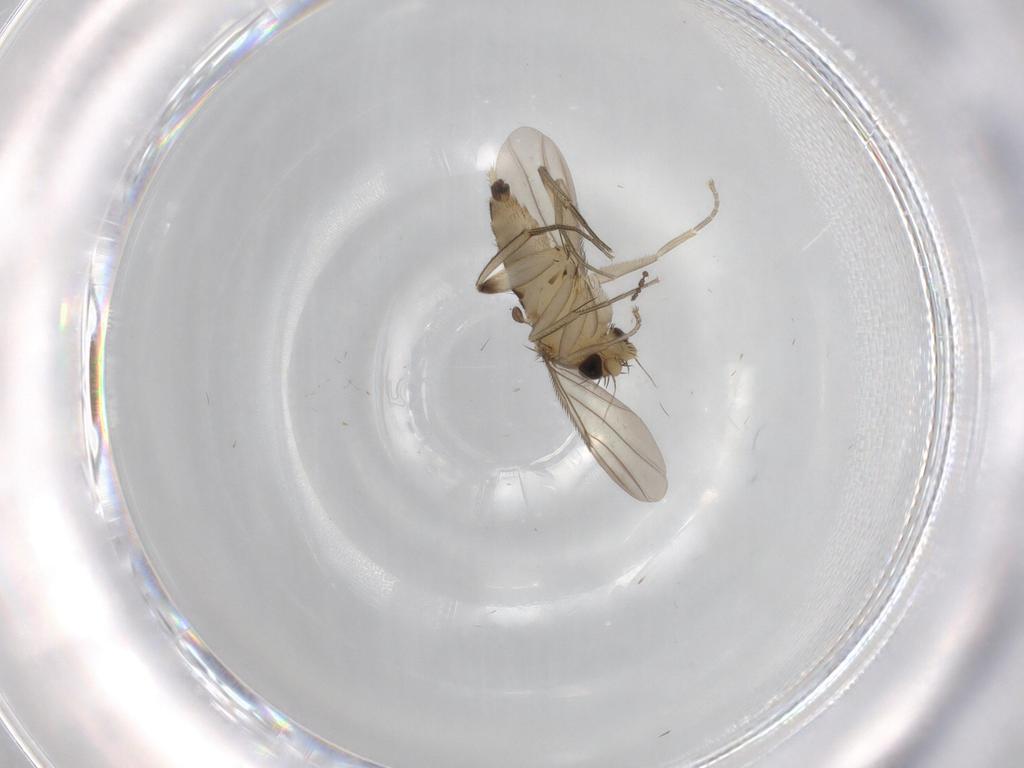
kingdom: Animalia
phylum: Arthropoda
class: Insecta
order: Diptera
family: Cecidomyiidae
